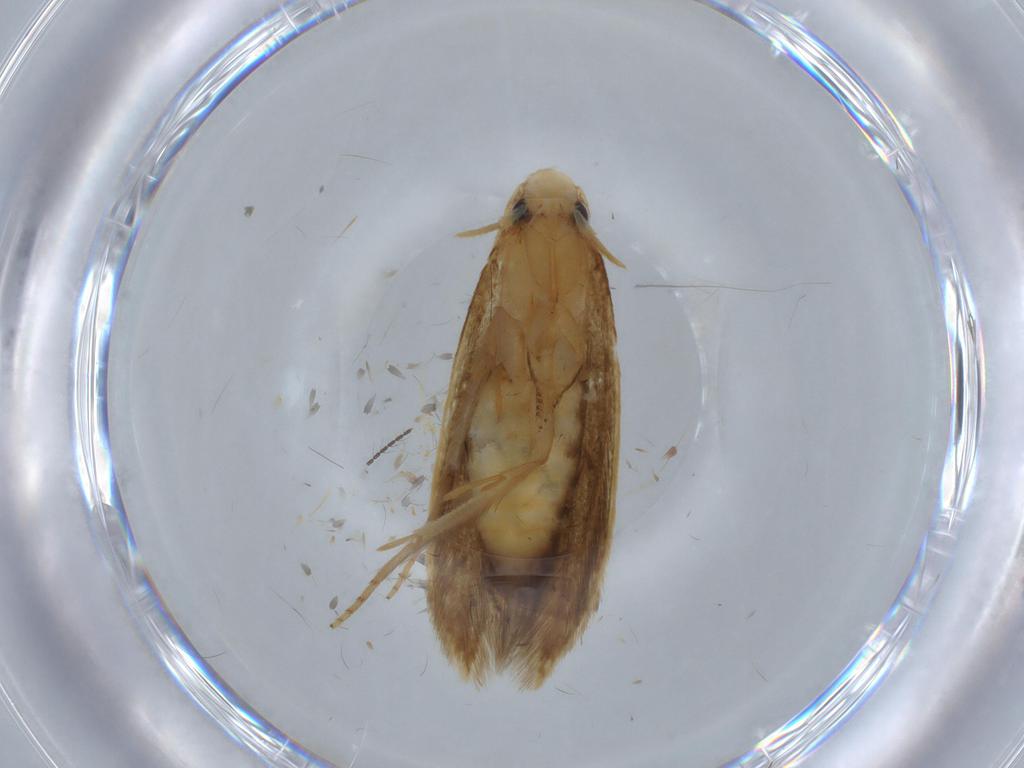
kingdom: Animalia
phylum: Arthropoda
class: Insecta
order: Lepidoptera
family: Tineidae
